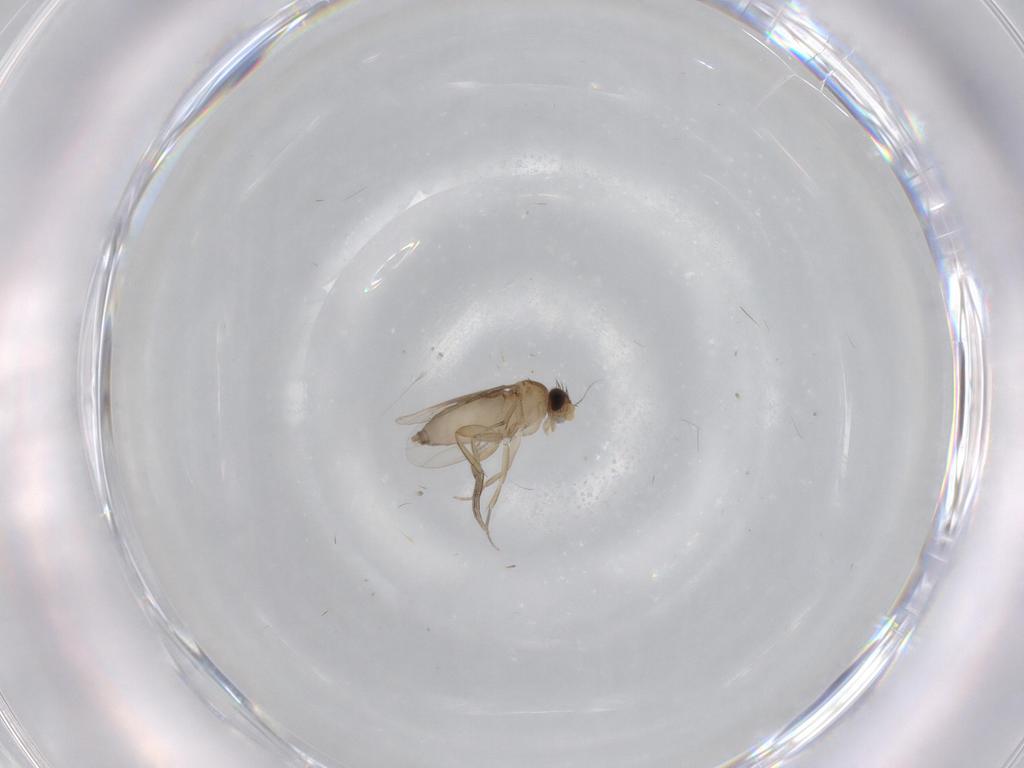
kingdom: Animalia
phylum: Arthropoda
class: Insecta
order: Diptera
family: Phoridae
